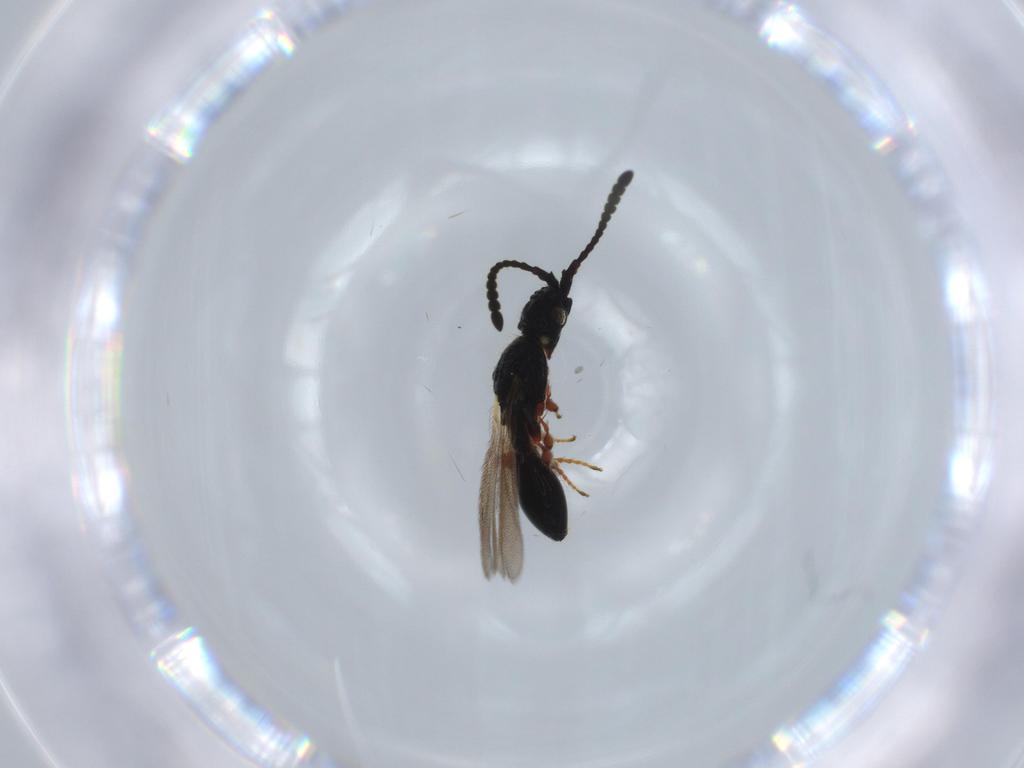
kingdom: Animalia
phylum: Arthropoda
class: Insecta
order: Hymenoptera
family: Diapriidae
